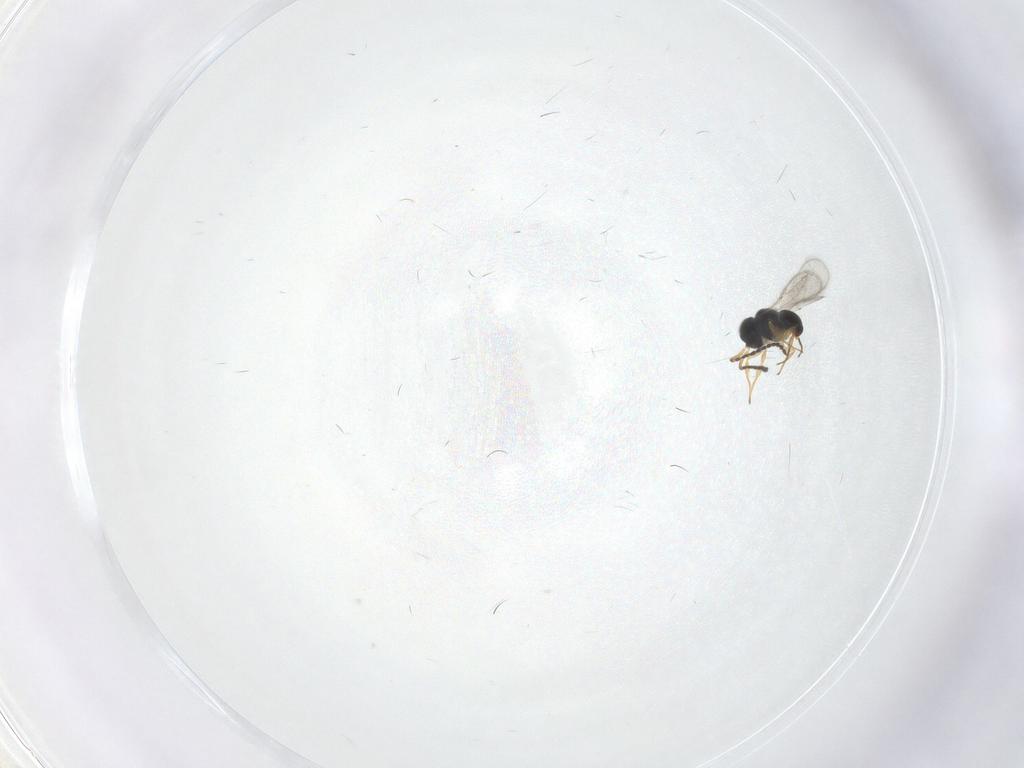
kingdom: Animalia
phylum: Arthropoda
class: Insecta
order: Hymenoptera
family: Scelionidae
